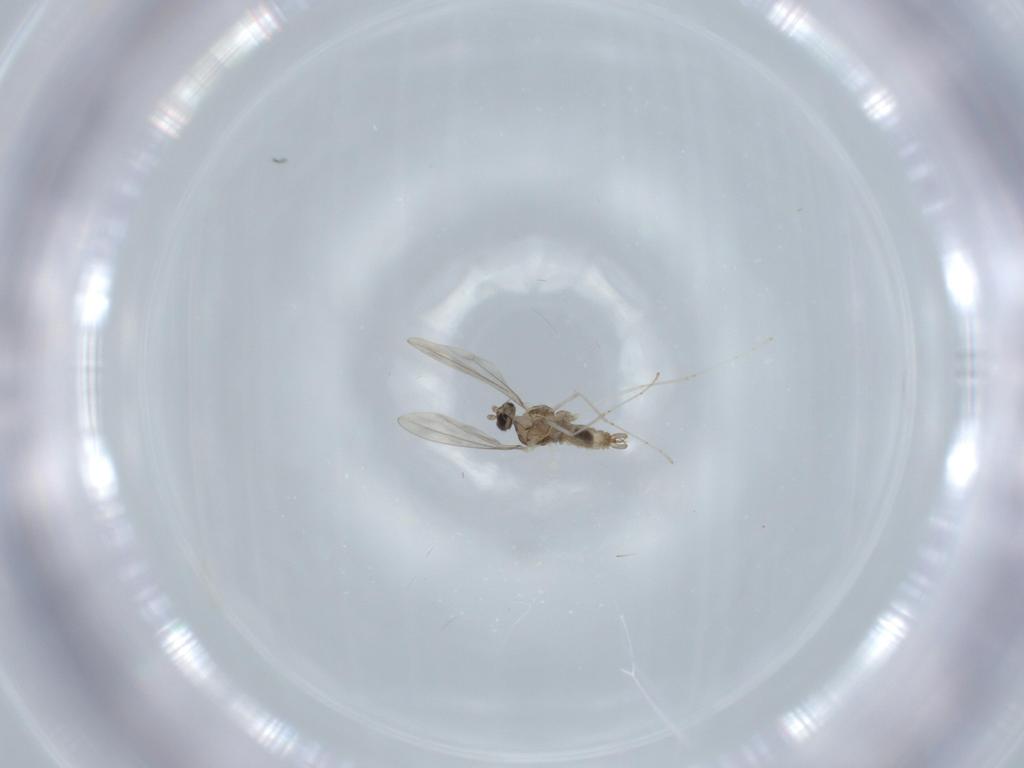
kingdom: Animalia
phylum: Arthropoda
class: Insecta
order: Diptera
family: Cecidomyiidae
